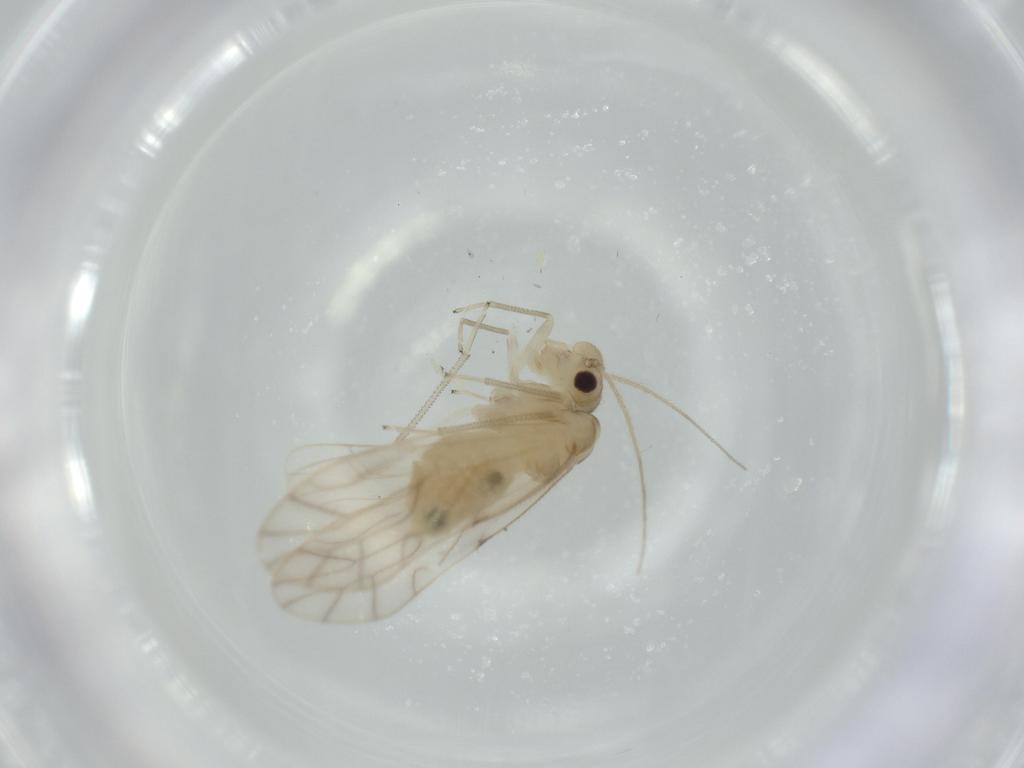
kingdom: Animalia
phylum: Arthropoda
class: Insecta
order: Psocodea
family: Caeciliusidae
